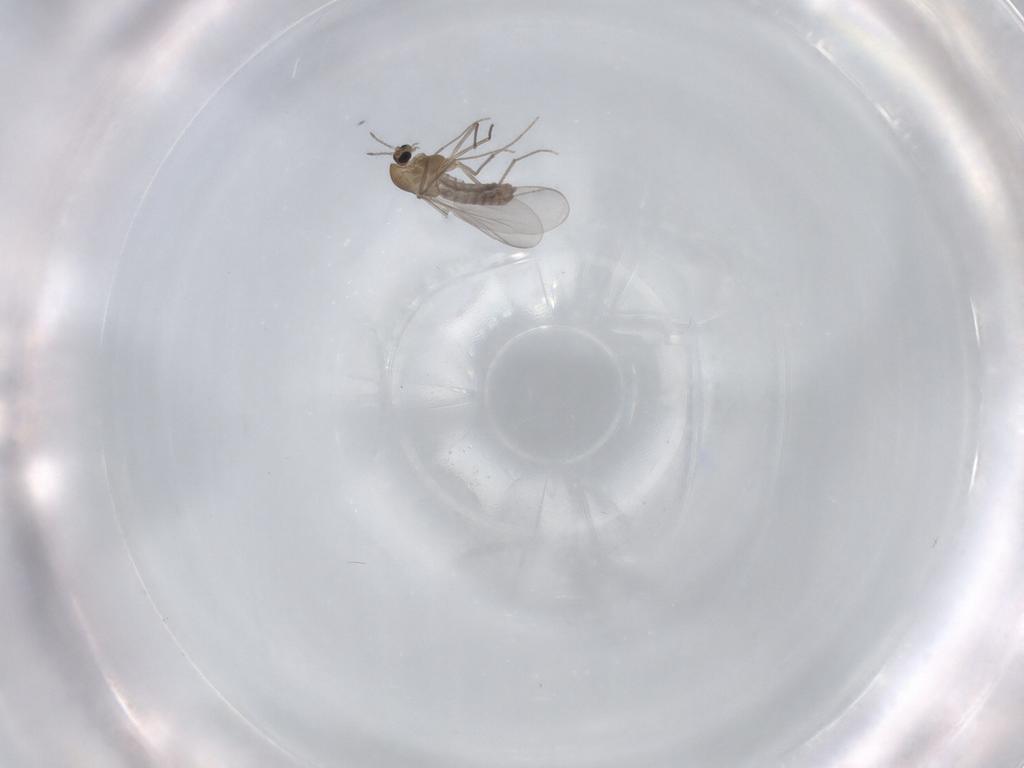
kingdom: Animalia
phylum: Arthropoda
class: Insecta
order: Diptera
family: Chironomidae
